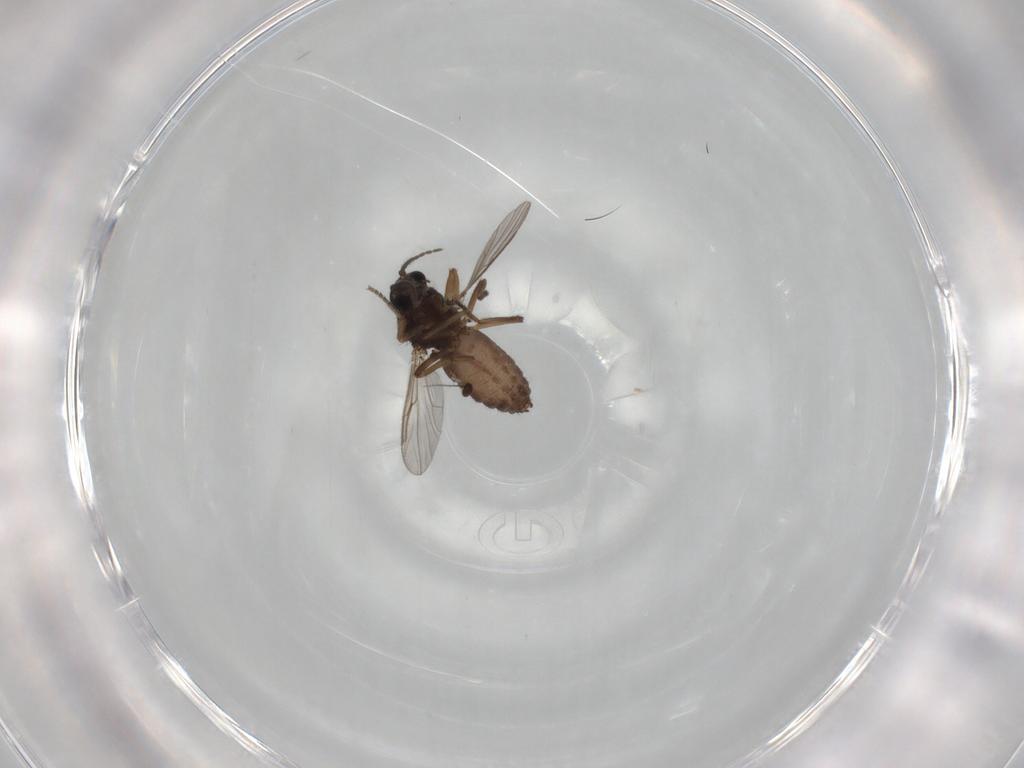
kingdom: Animalia
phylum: Arthropoda
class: Insecta
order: Diptera
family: Ceratopogonidae
